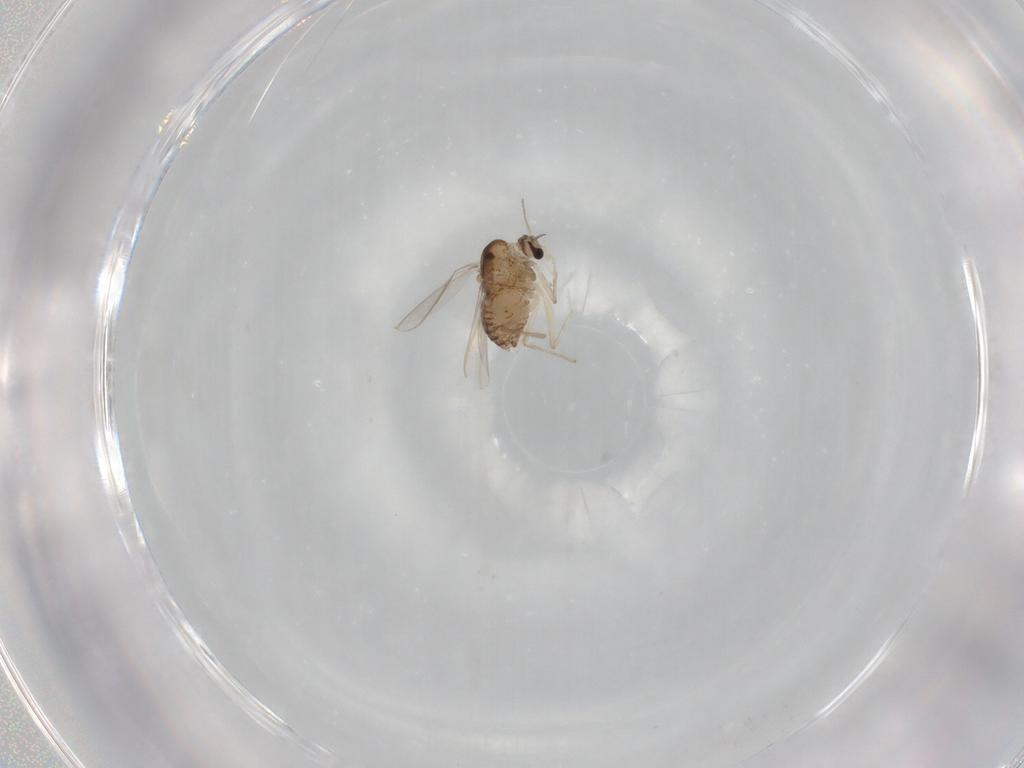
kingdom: Animalia
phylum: Arthropoda
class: Insecta
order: Diptera
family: Chironomidae
